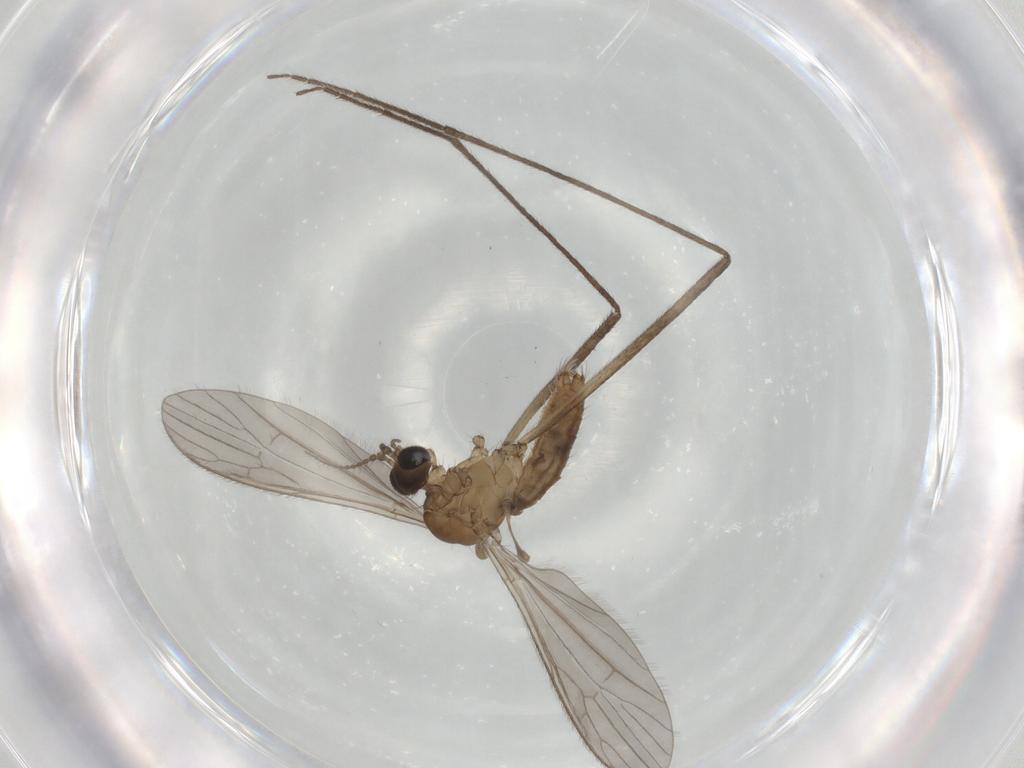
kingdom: Animalia
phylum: Arthropoda
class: Insecta
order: Diptera
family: Limoniidae
